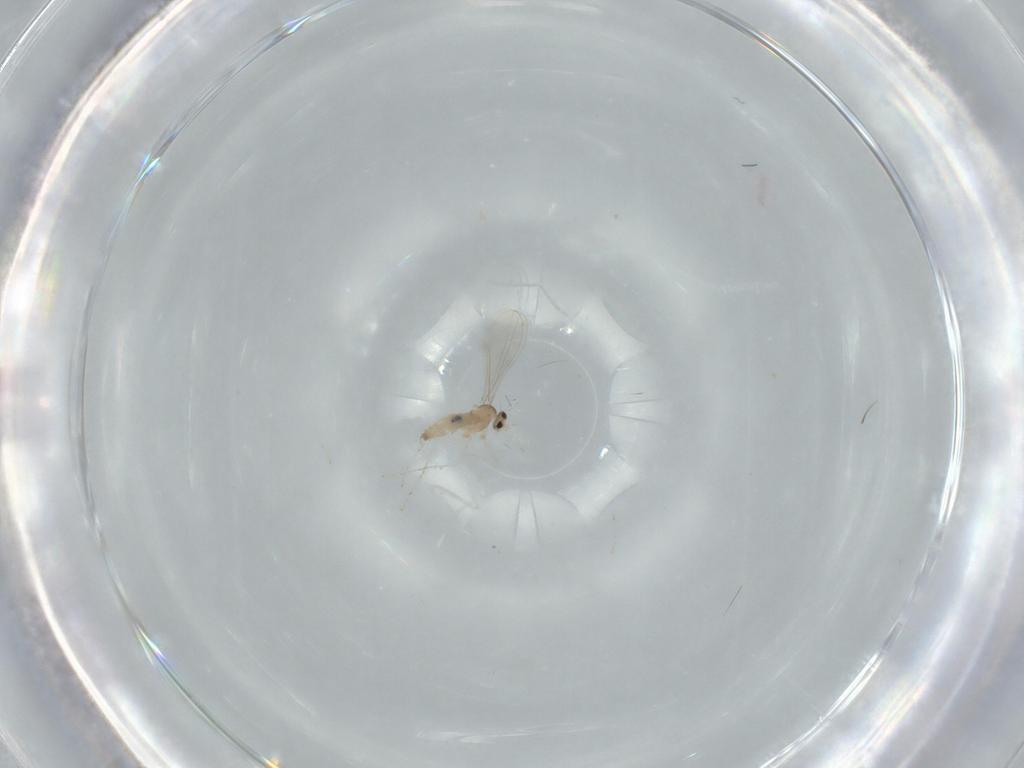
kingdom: Animalia
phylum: Arthropoda
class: Insecta
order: Diptera
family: Cecidomyiidae
